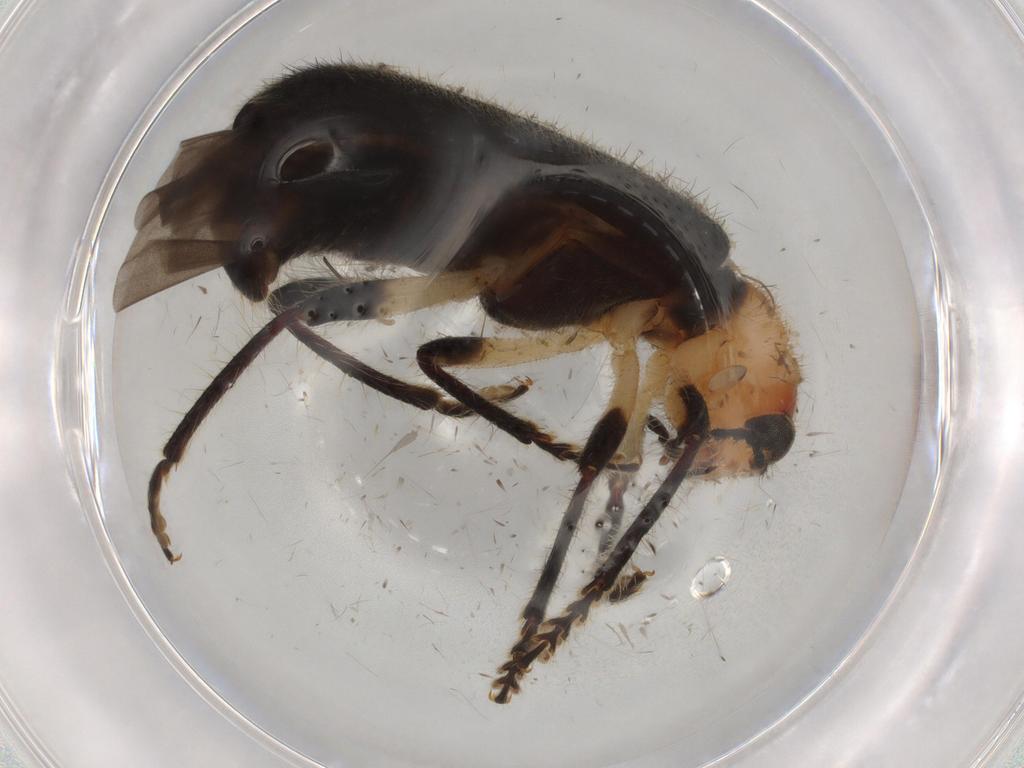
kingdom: Animalia
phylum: Arthropoda
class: Insecta
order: Coleoptera
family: Cleridae
